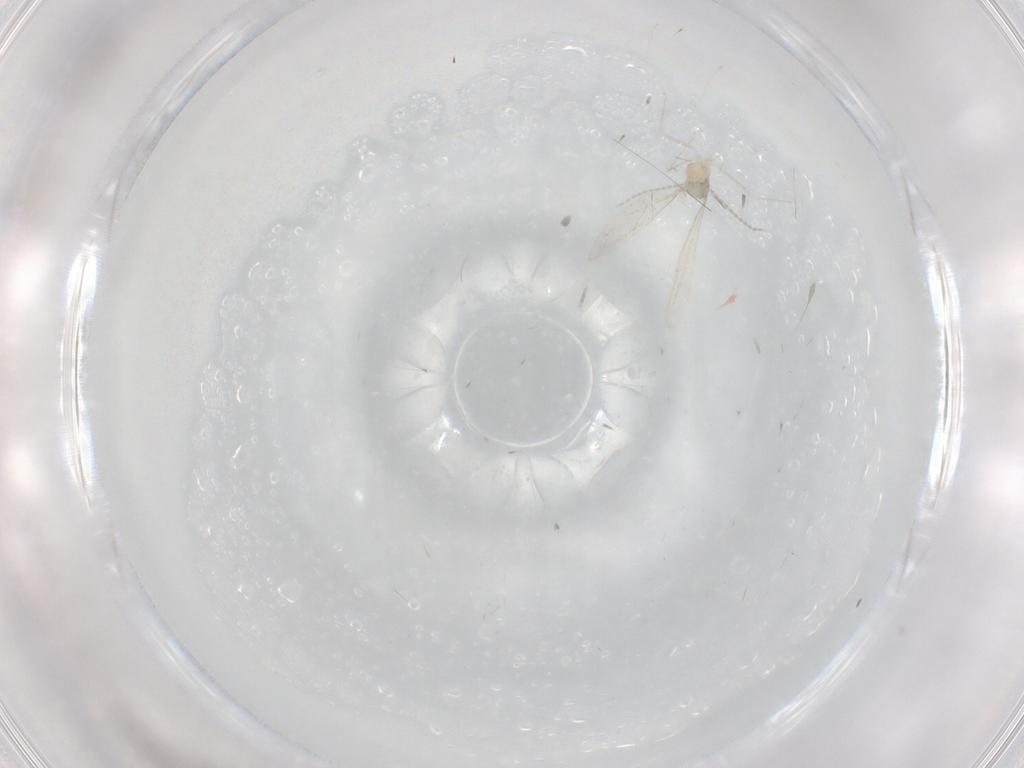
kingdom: Animalia
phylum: Arthropoda
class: Insecta
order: Diptera
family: Cecidomyiidae
